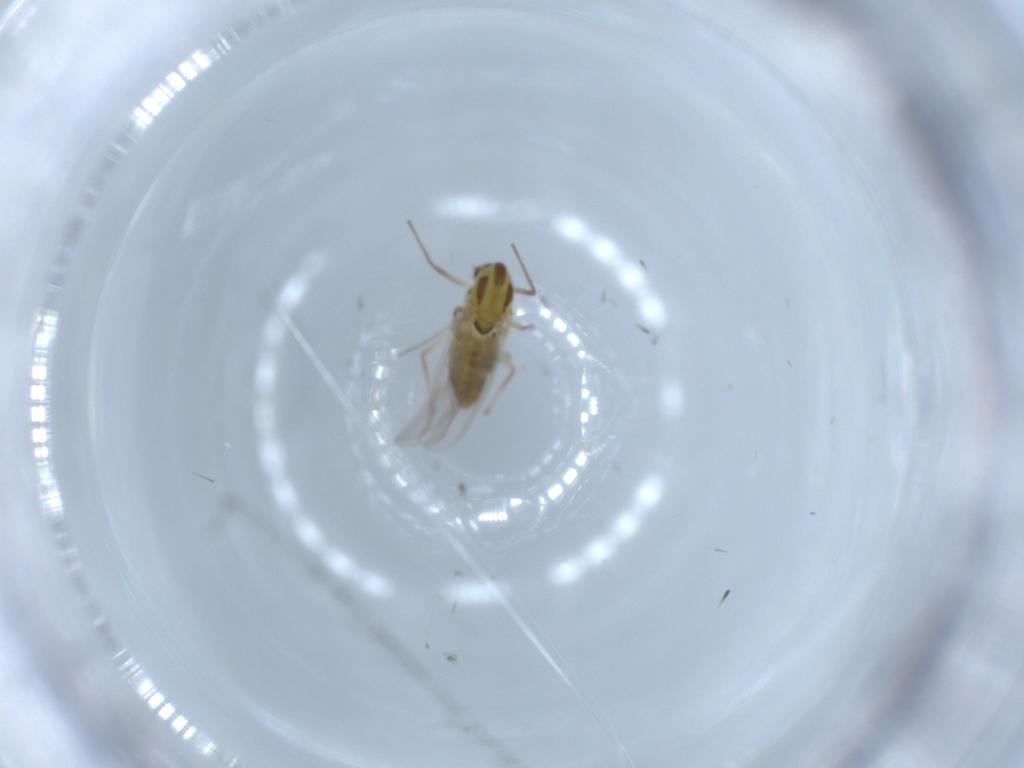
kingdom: Animalia
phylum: Arthropoda
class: Insecta
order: Diptera
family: Chironomidae
